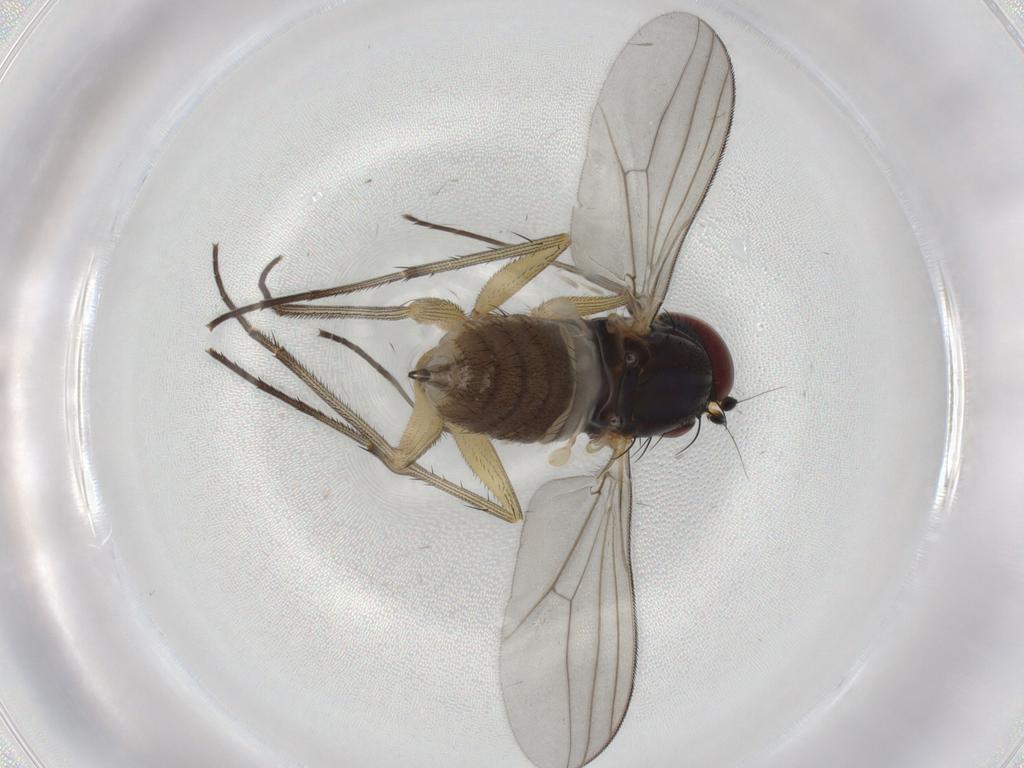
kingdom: Animalia
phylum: Arthropoda
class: Insecta
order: Diptera
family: Dolichopodidae
